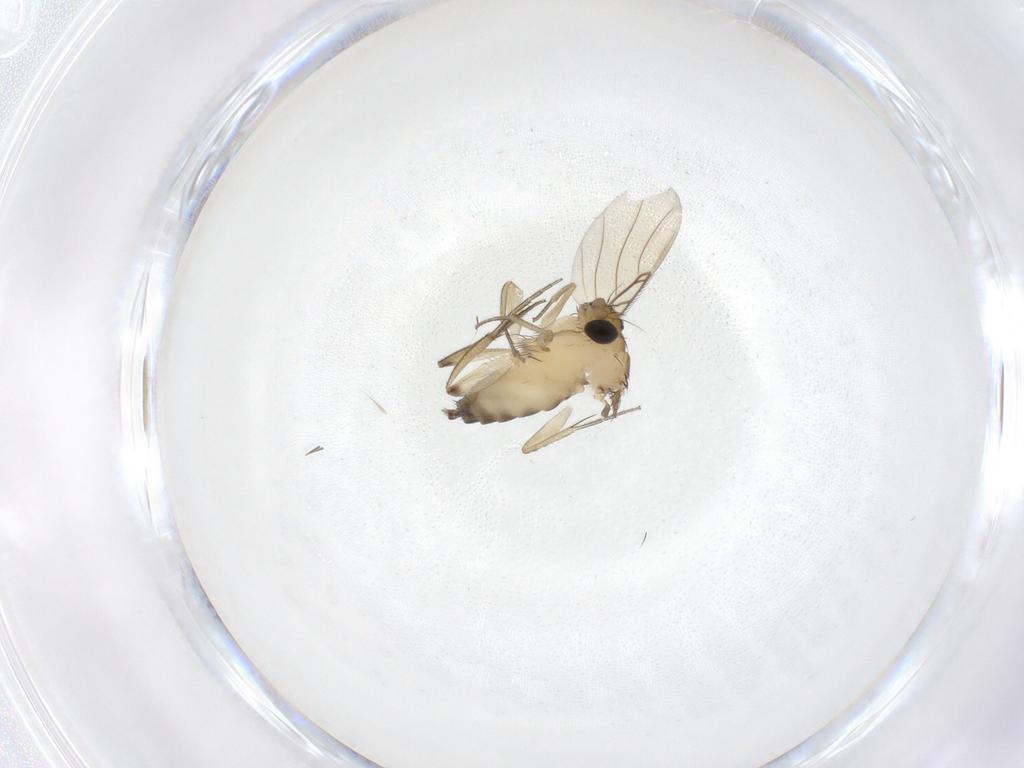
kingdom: Animalia
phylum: Arthropoda
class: Insecta
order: Diptera
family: Phoridae
